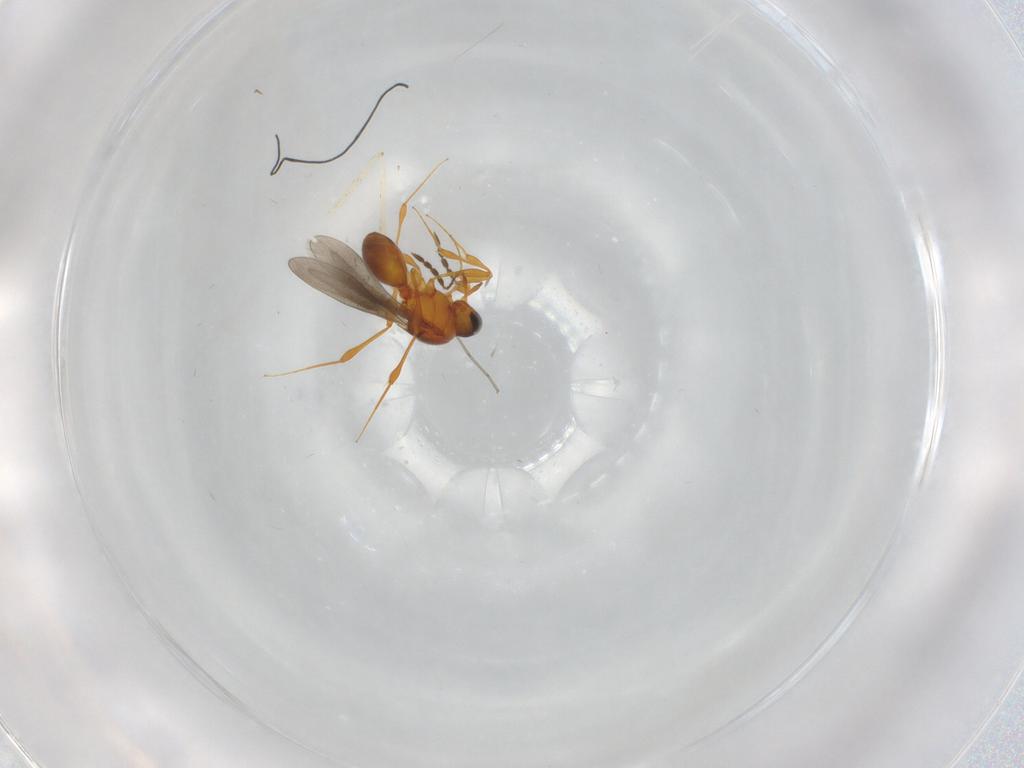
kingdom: Animalia
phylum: Arthropoda
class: Insecta
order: Hymenoptera
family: Platygastridae
